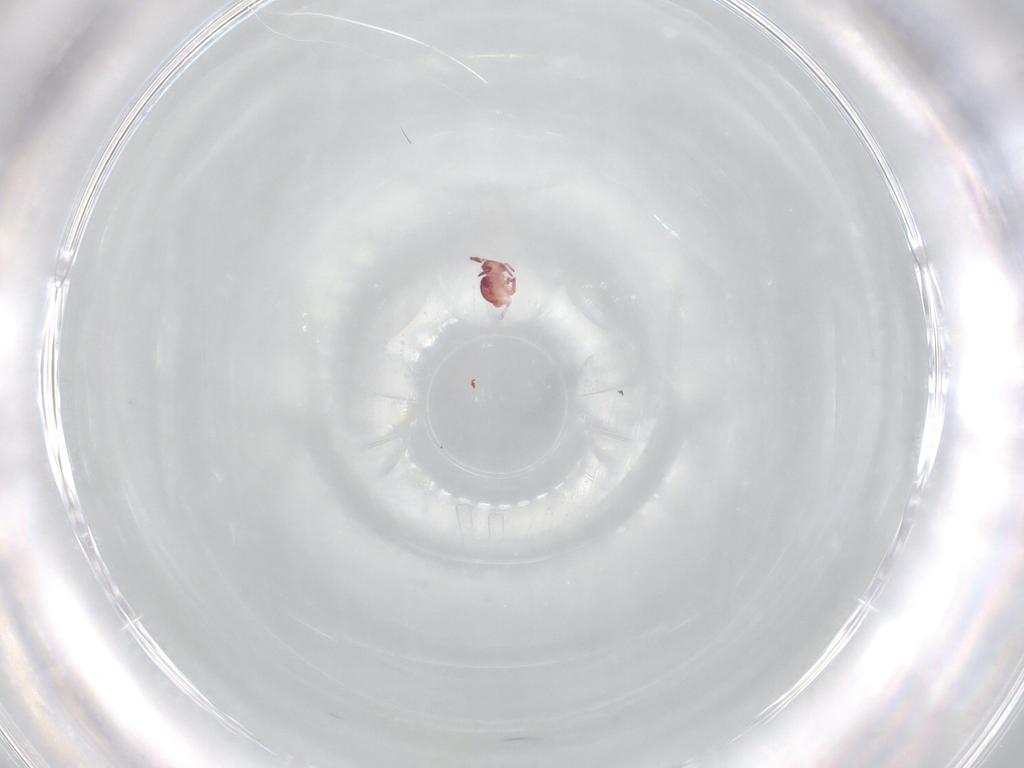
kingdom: Animalia
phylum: Arthropoda
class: Collembola
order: Symphypleona
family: Sminthurididae
